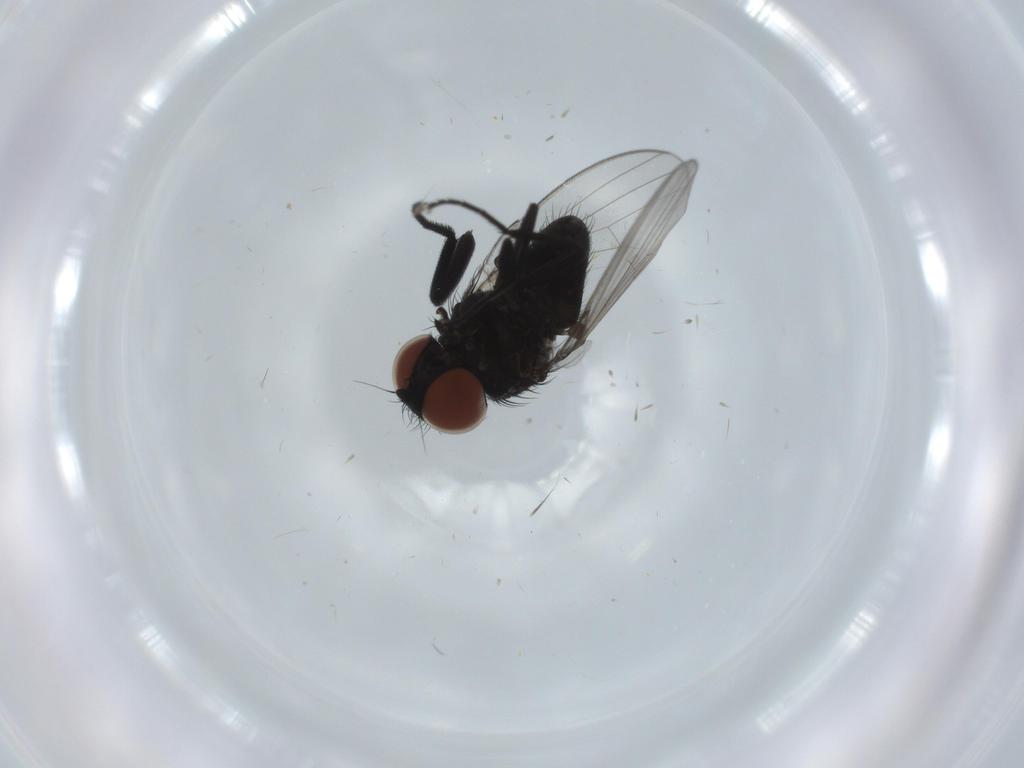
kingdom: Animalia
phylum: Arthropoda
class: Insecta
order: Diptera
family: Milichiidae
